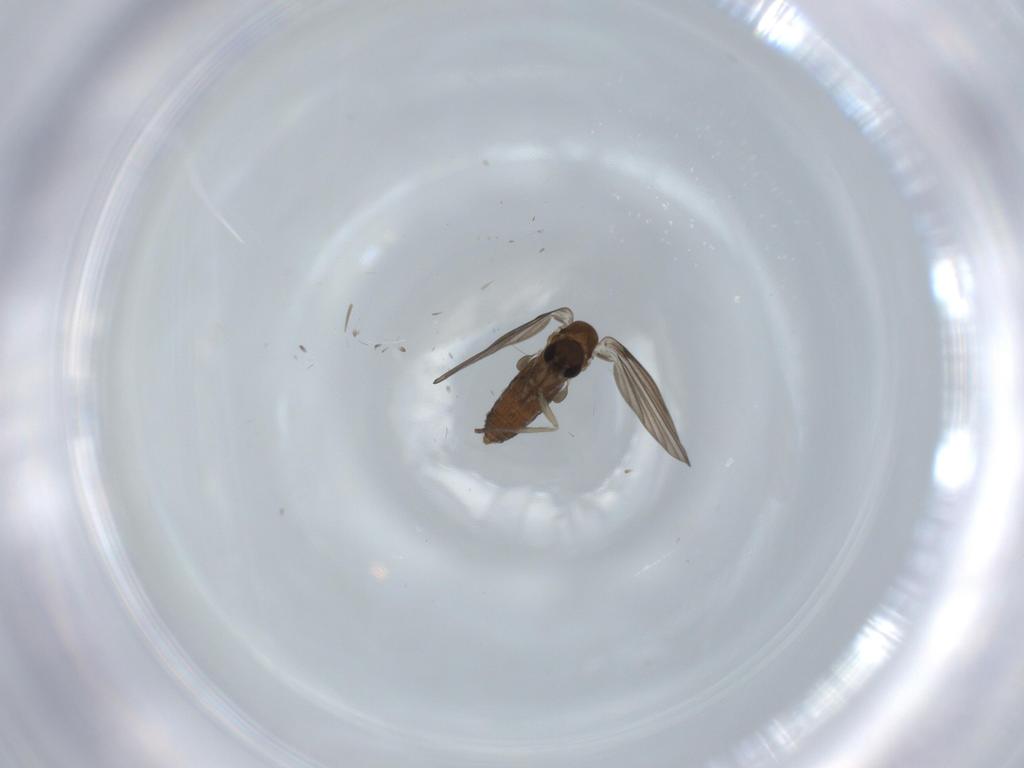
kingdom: Animalia
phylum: Arthropoda
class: Insecta
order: Diptera
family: Psychodidae
